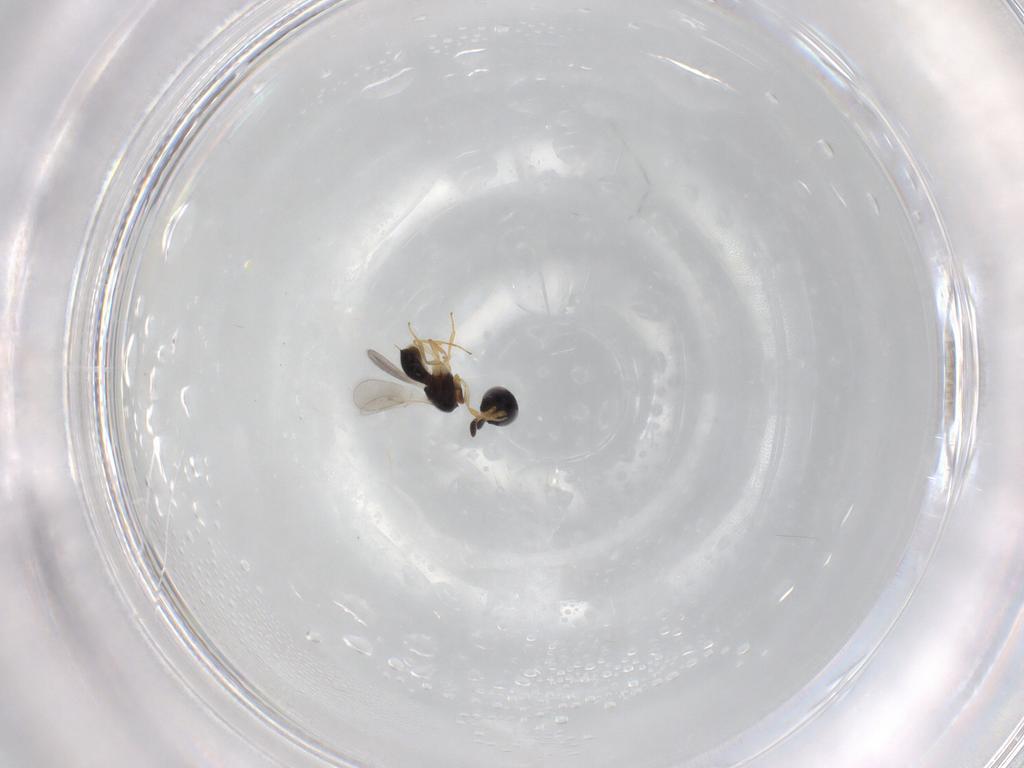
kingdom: Animalia
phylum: Arthropoda
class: Insecta
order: Hymenoptera
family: Scelionidae
